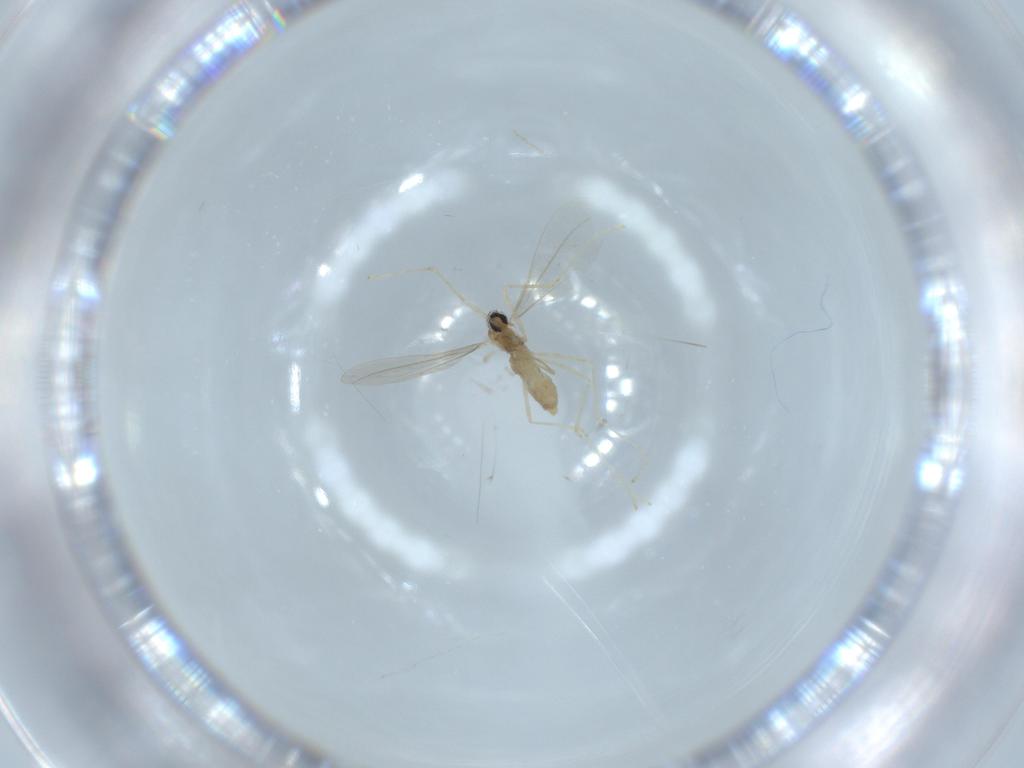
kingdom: Animalia
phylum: Arthropoda
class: Insecta
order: Diptera
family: Cecidomyiidae
